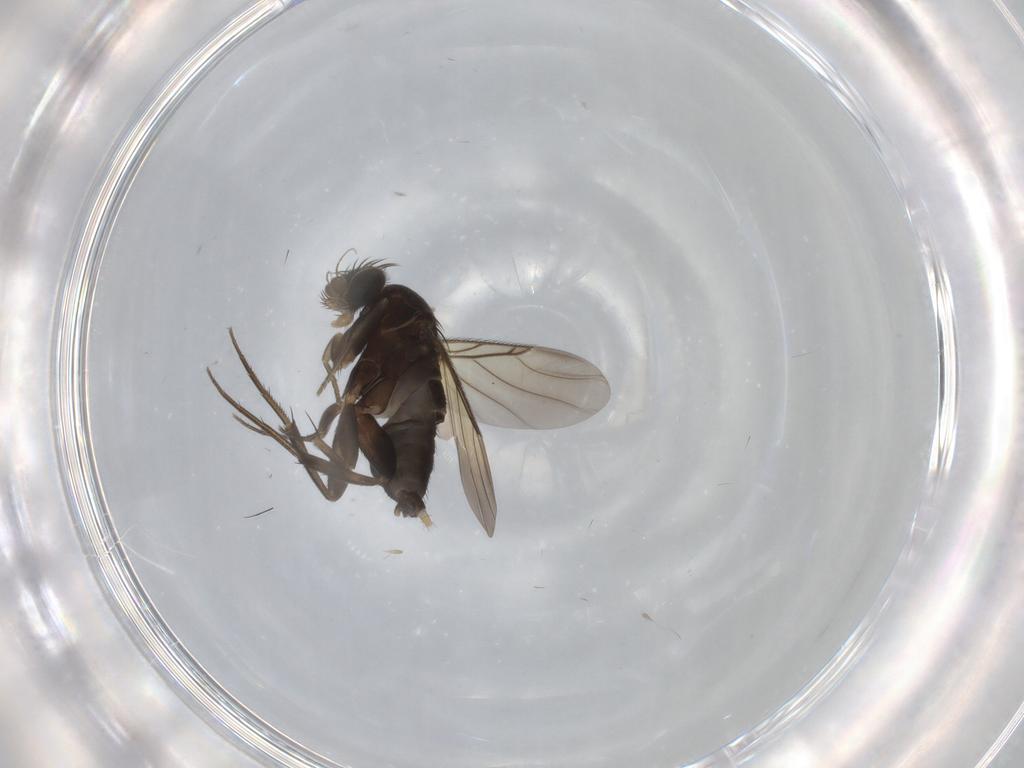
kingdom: Animalia
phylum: Arthropoda
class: Insecta
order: Diptera
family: Phoridae
